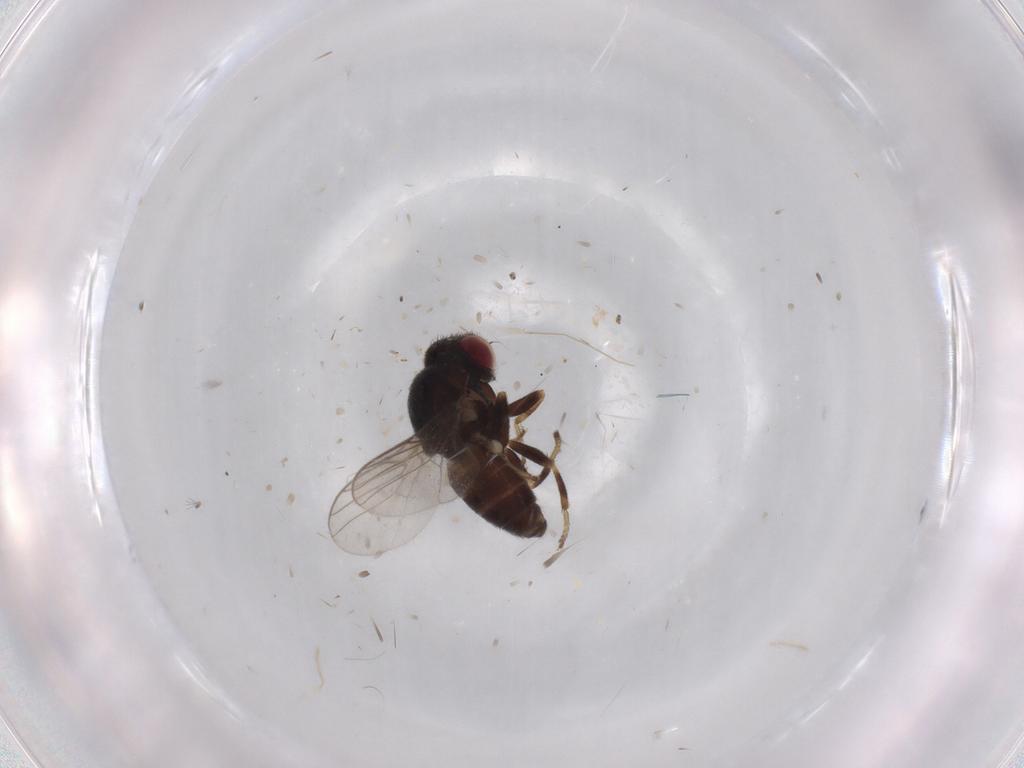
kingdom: Animalia
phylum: Arthropoda
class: Insecta
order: Diptera
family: Chloropidae
